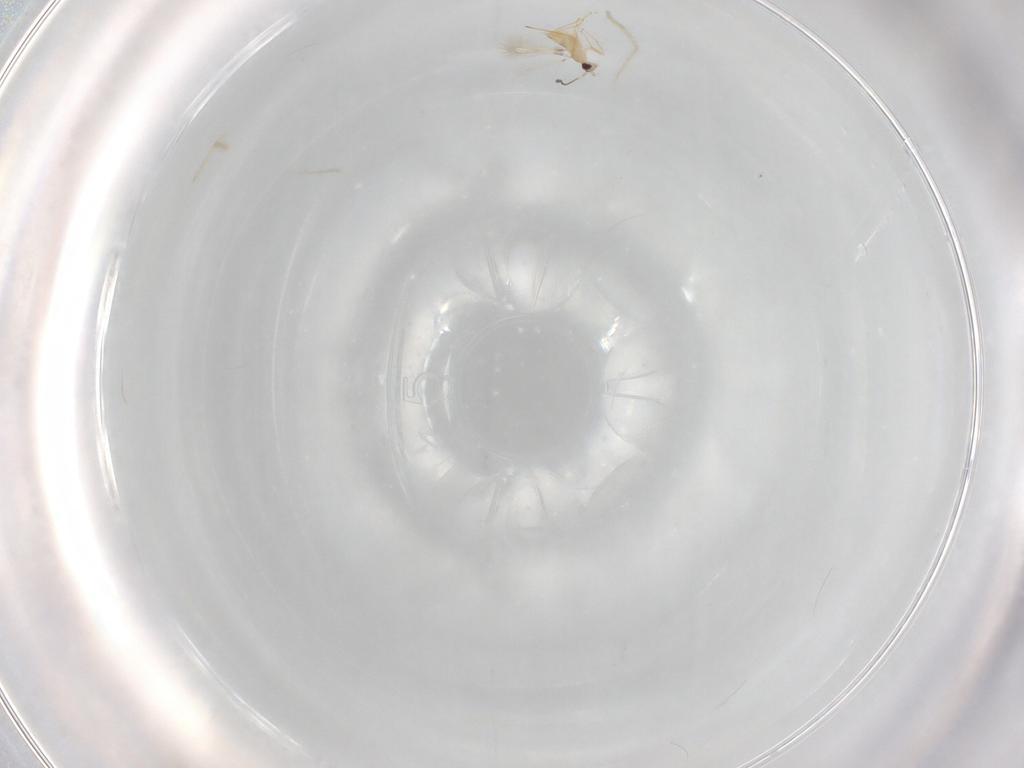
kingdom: Animalia
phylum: Arthropoda
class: Insecta
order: Hymenoptera
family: Mymaridae
